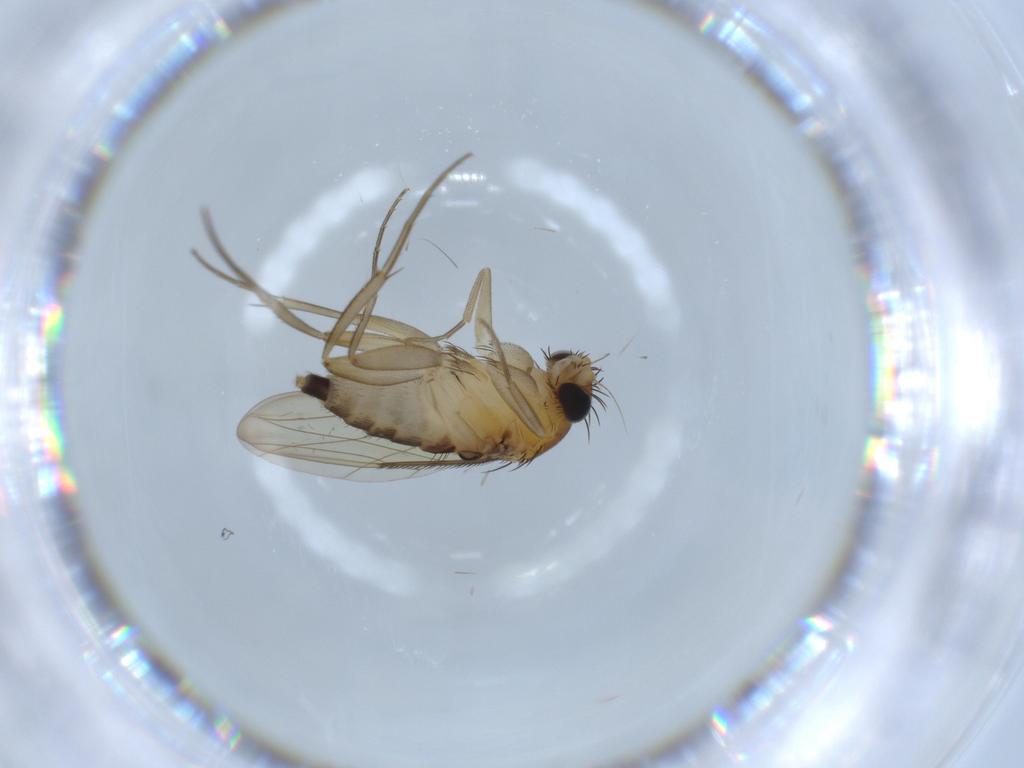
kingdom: Animalia
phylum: Arthropoda
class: Insecta
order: Diptera
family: Phoridae
